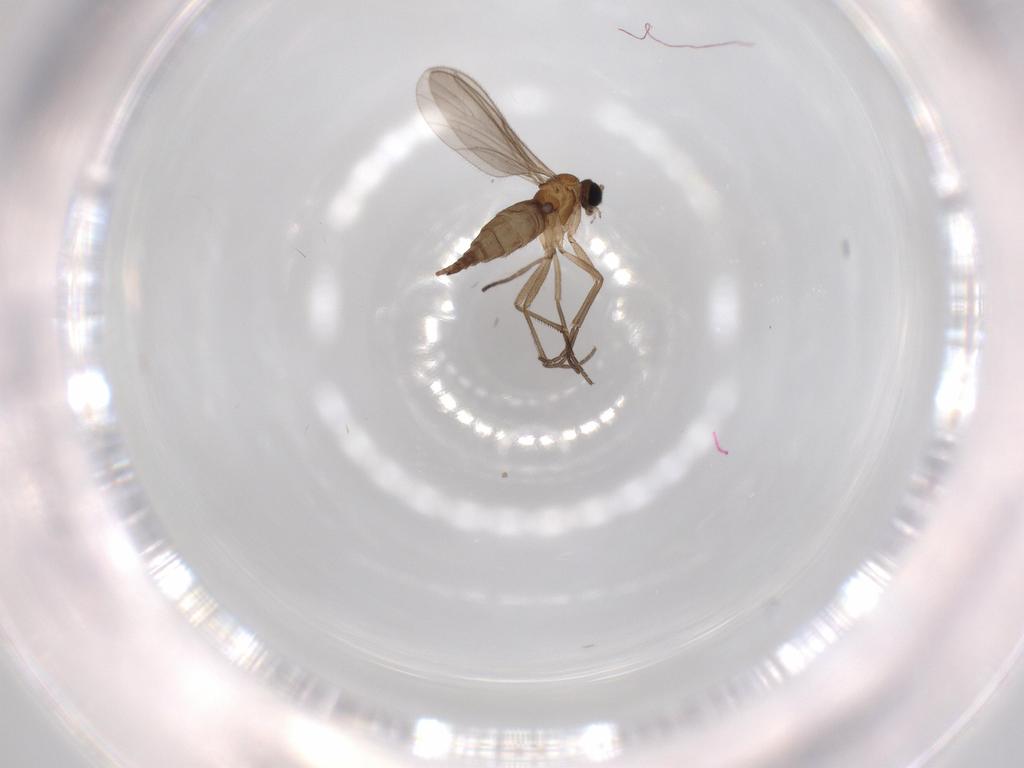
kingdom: Animalia
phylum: Arthropoda
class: Insecta
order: Diptera
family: Sciaridae
